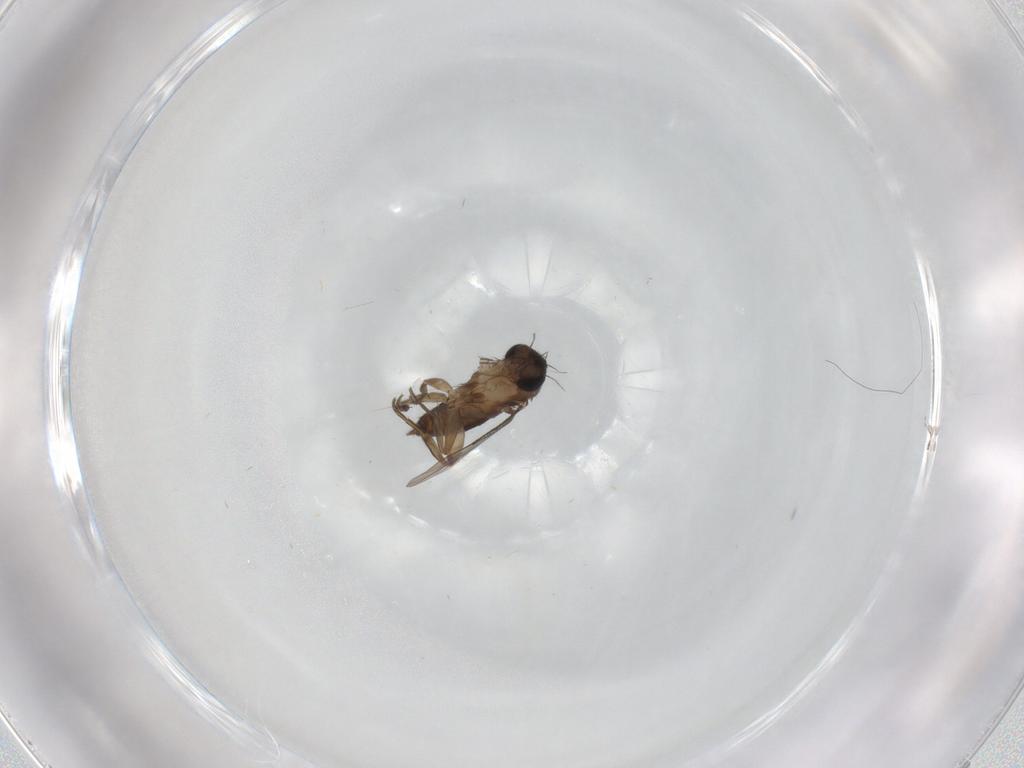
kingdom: Animalia
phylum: Arthropoda
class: Insecta
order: Diptera
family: Phoridae
